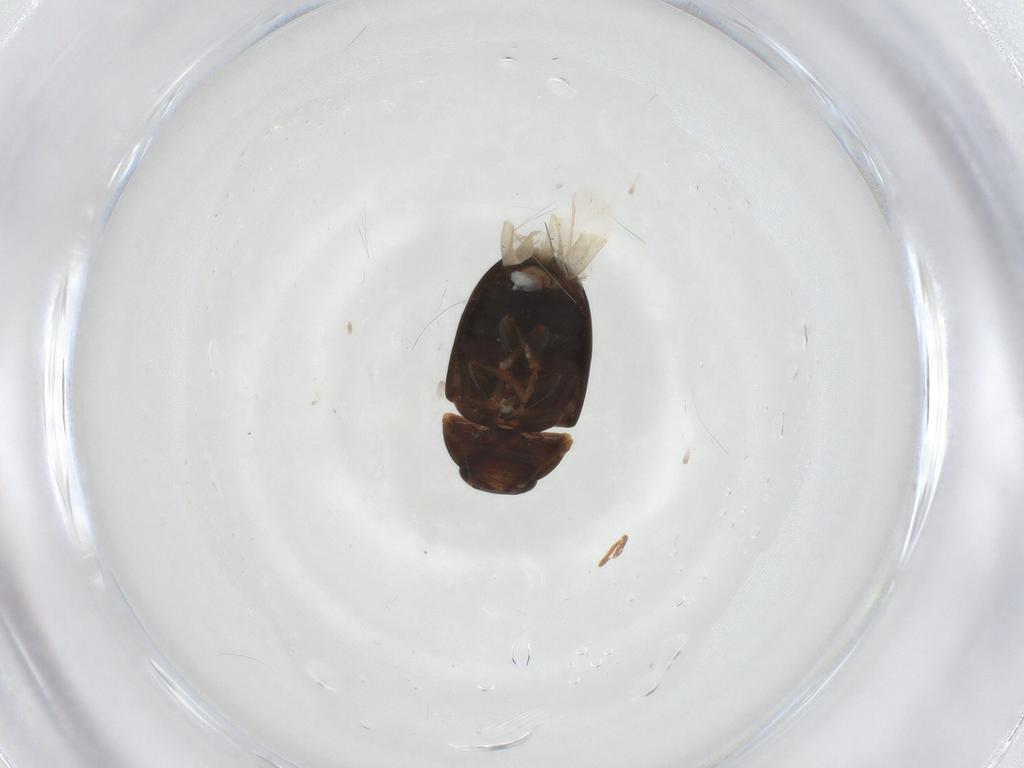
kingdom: Animalia
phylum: Arthropoda
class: Insecta
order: Coleoptera
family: Phalacridae
